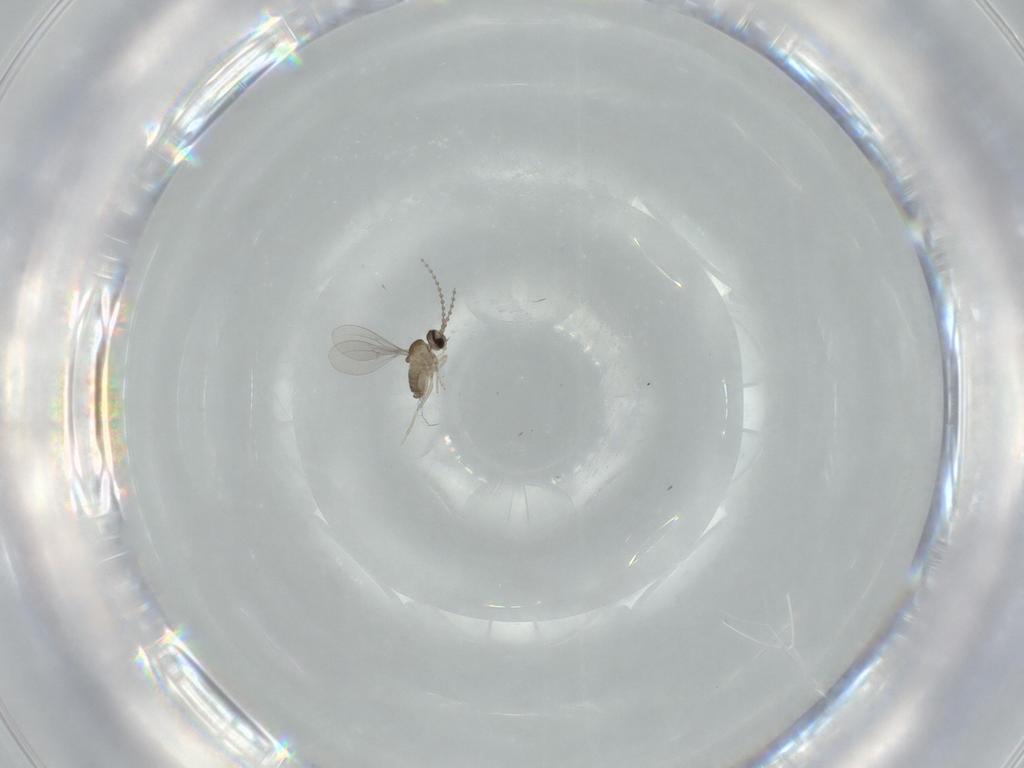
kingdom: Animalia
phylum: Arthropoda
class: Insecta
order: Diptera
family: Cecidomyiidae
